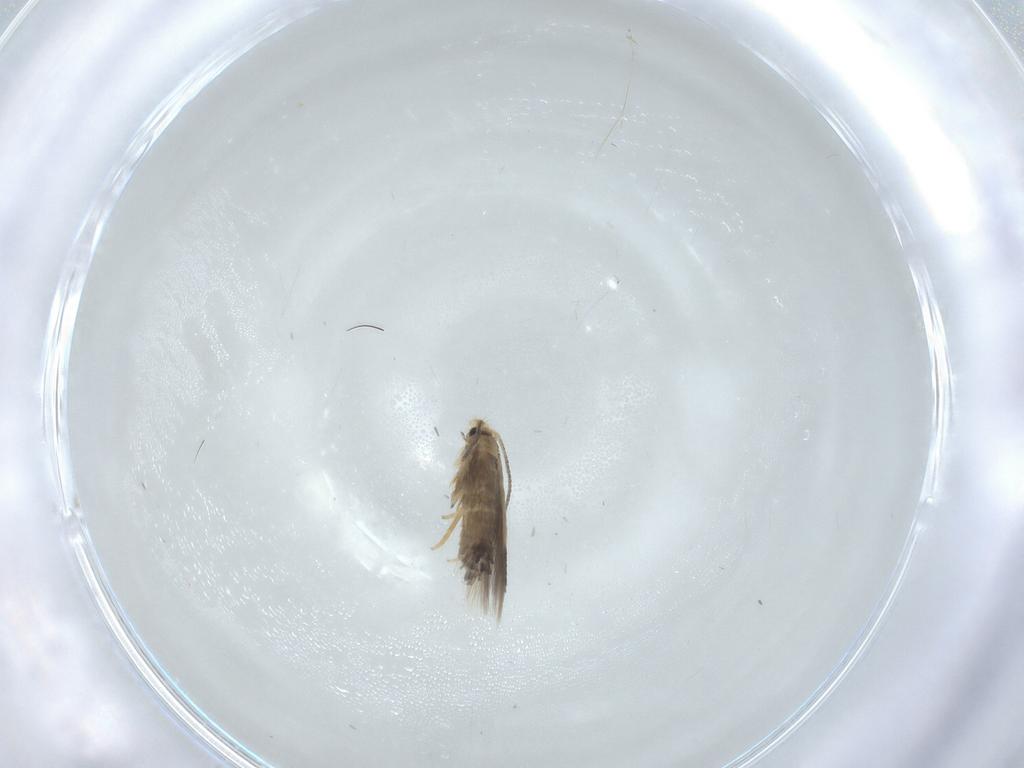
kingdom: Animalia
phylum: Arthropoda
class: Insecta
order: Lepidoptera
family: Nepticulidae
